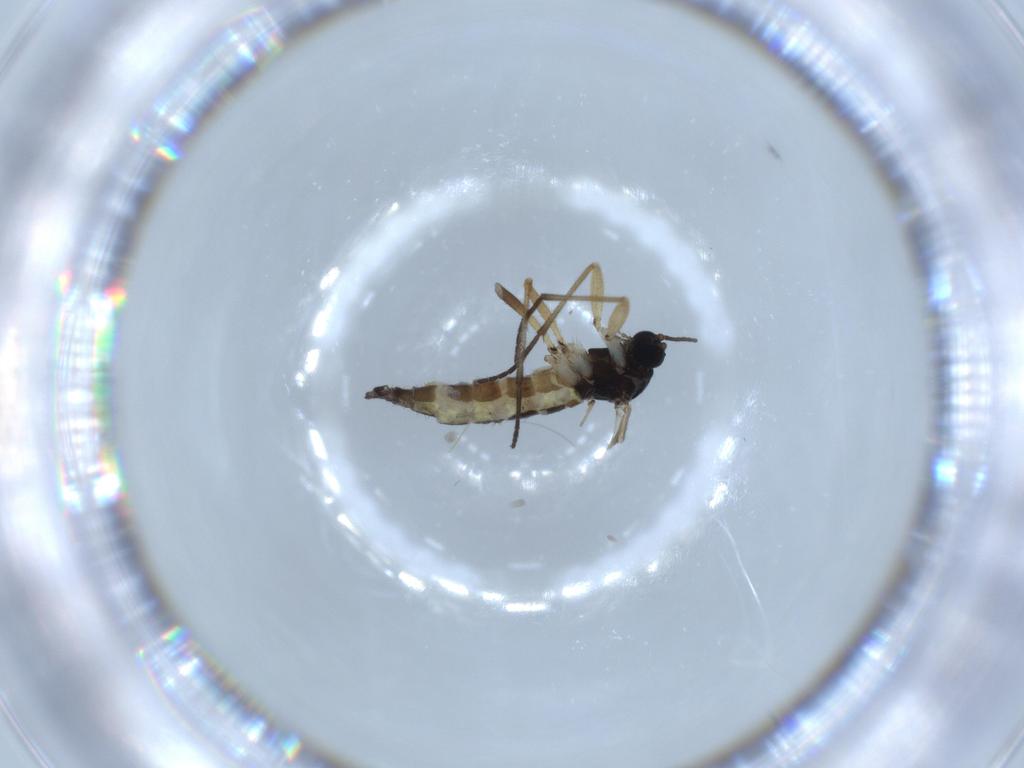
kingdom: Animalia
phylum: Arthropoda
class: Insecta
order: Diptera
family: Sciaridae
